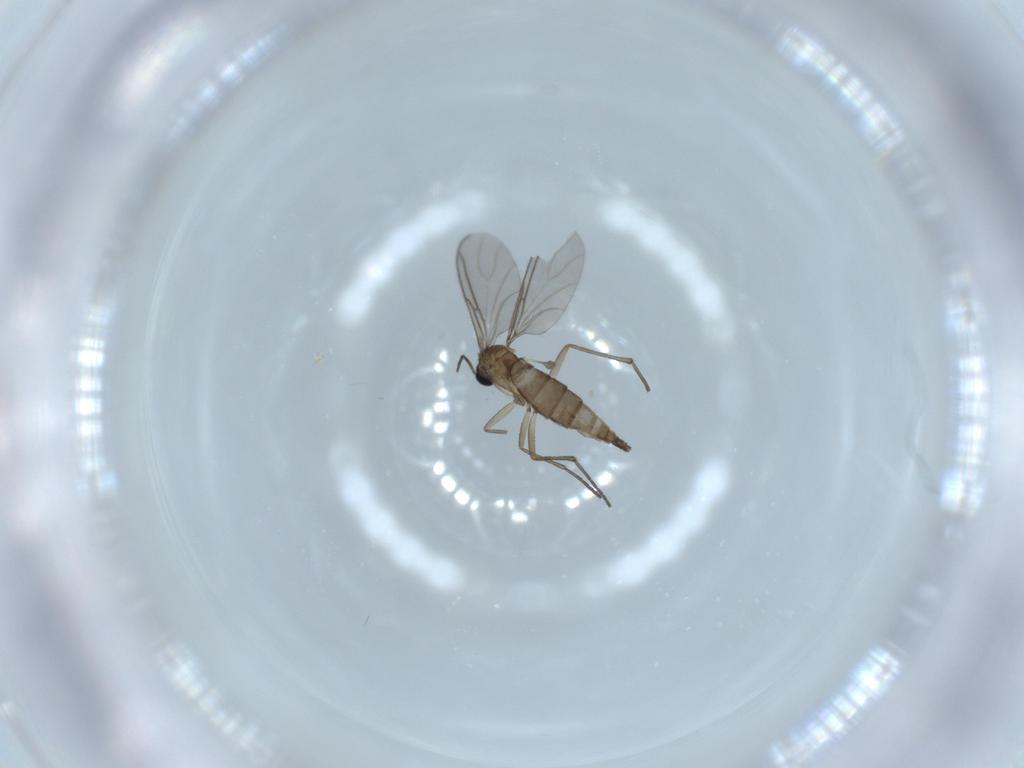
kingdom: Animalia
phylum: Arthropoda
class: Insecta
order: Diptera
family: Sciaridae
